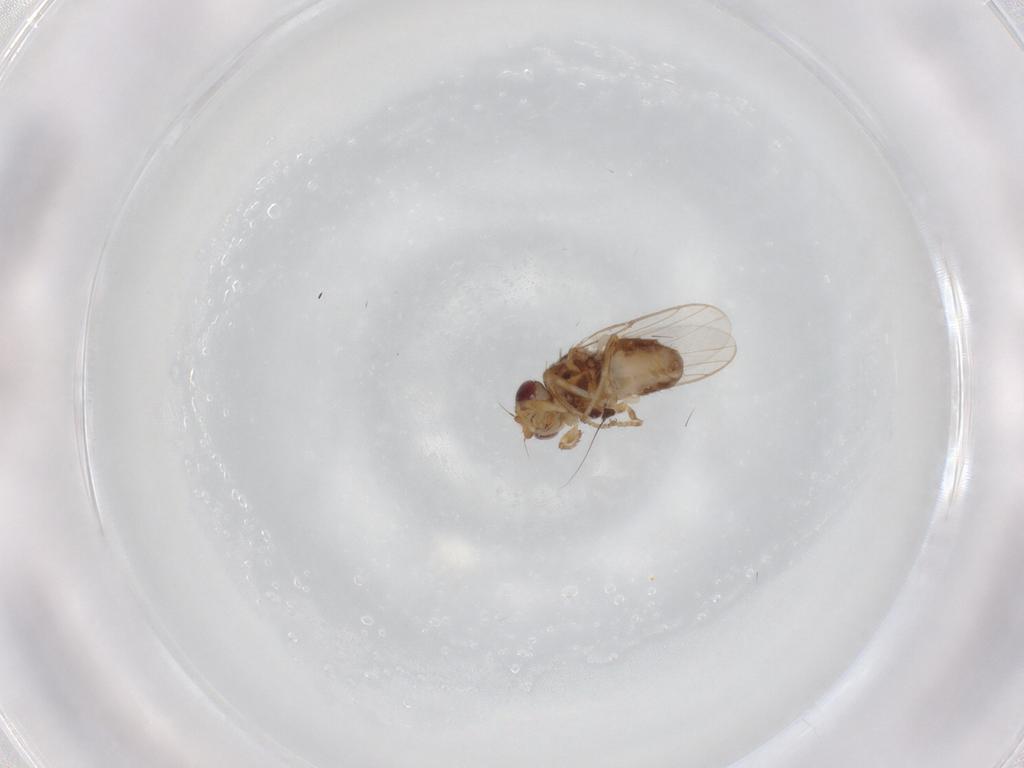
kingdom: Animalia
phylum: Arthropoda
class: Insecta
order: Diptera
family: Chloropidae
